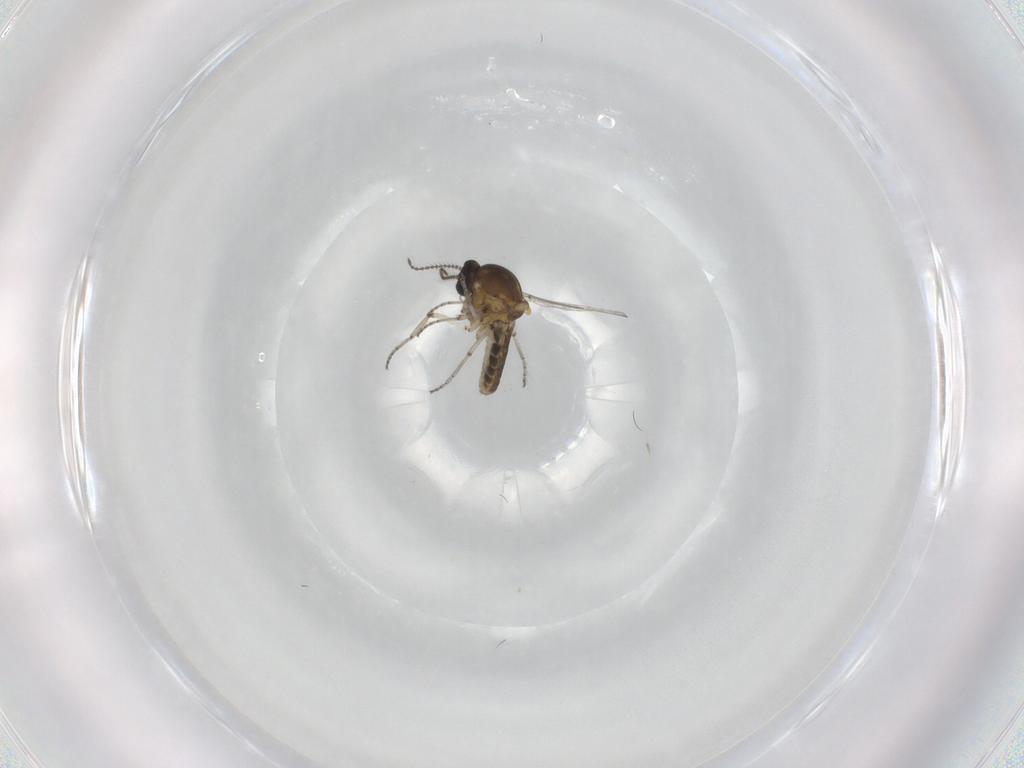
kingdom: Animalia
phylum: Arthropoda
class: Insecta
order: Diptera
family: Ceratopogonidae
